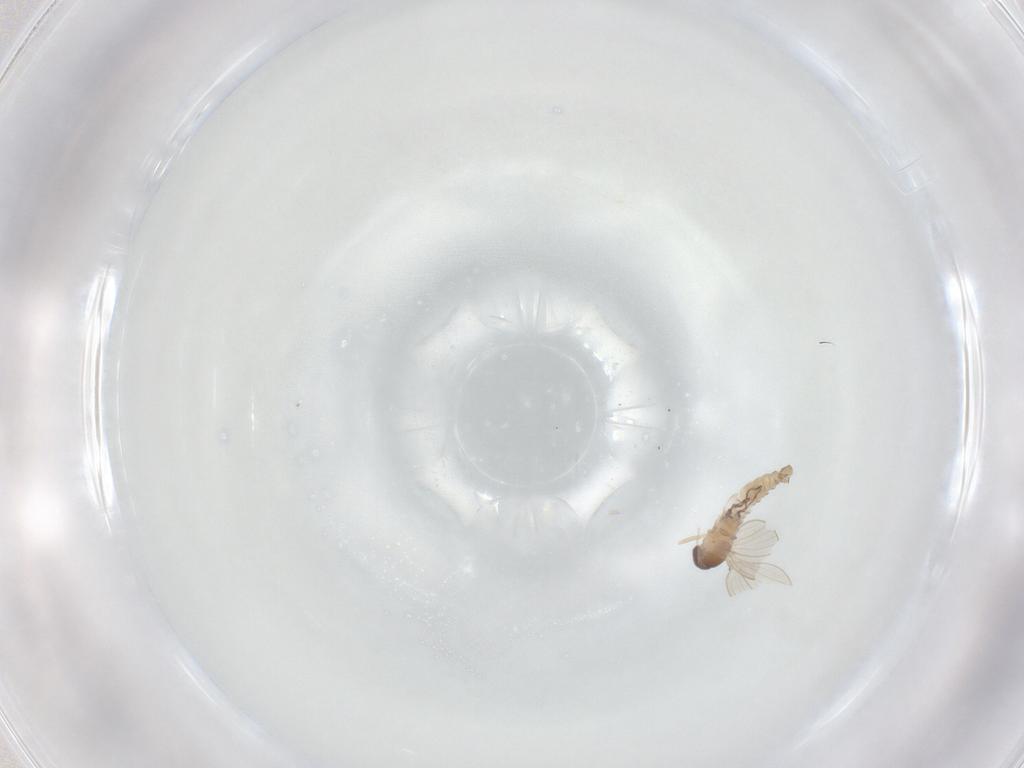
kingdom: Animalia
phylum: Arthropoda
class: Insecta
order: Diptera
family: Psychodidae
